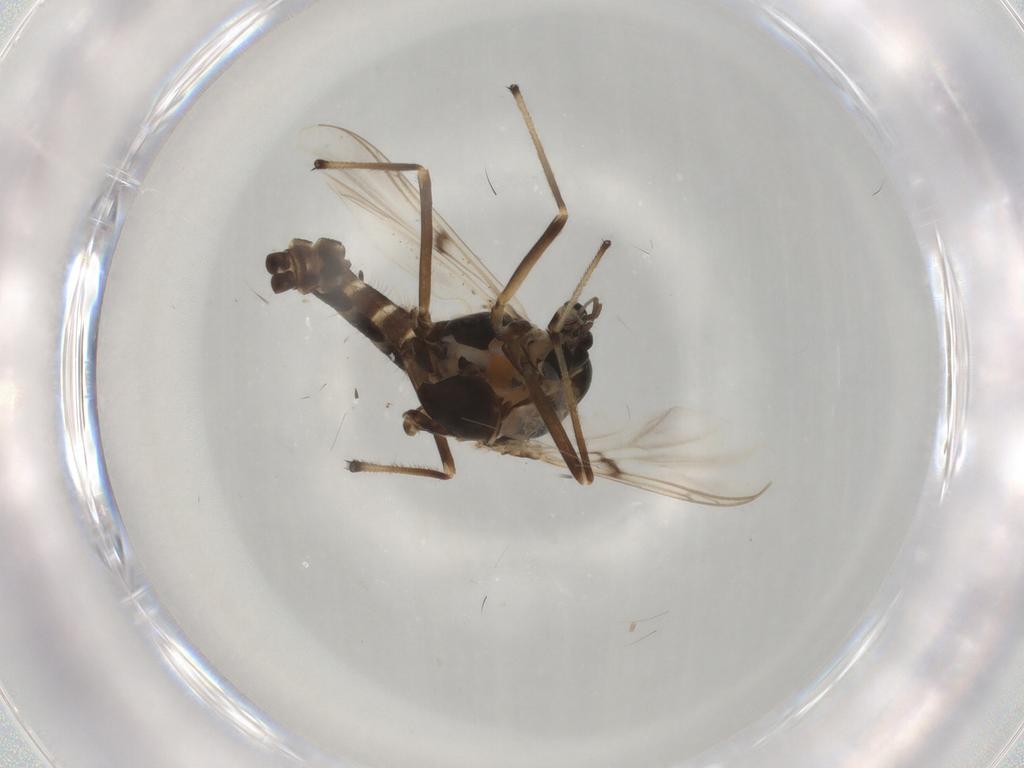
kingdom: Animalia
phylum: Arthropoda
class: Insecta
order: Diptera
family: Chironomidae
